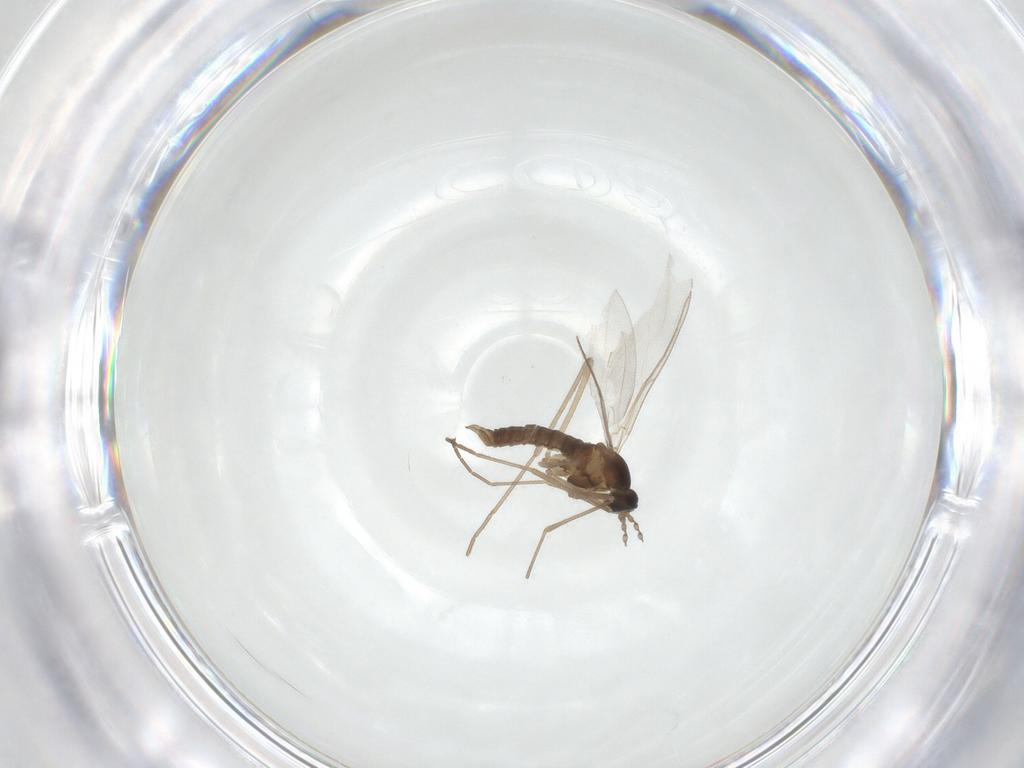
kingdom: Animalia
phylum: Arthropoda
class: Insecta
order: Diptera
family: Cecidomyiidae
